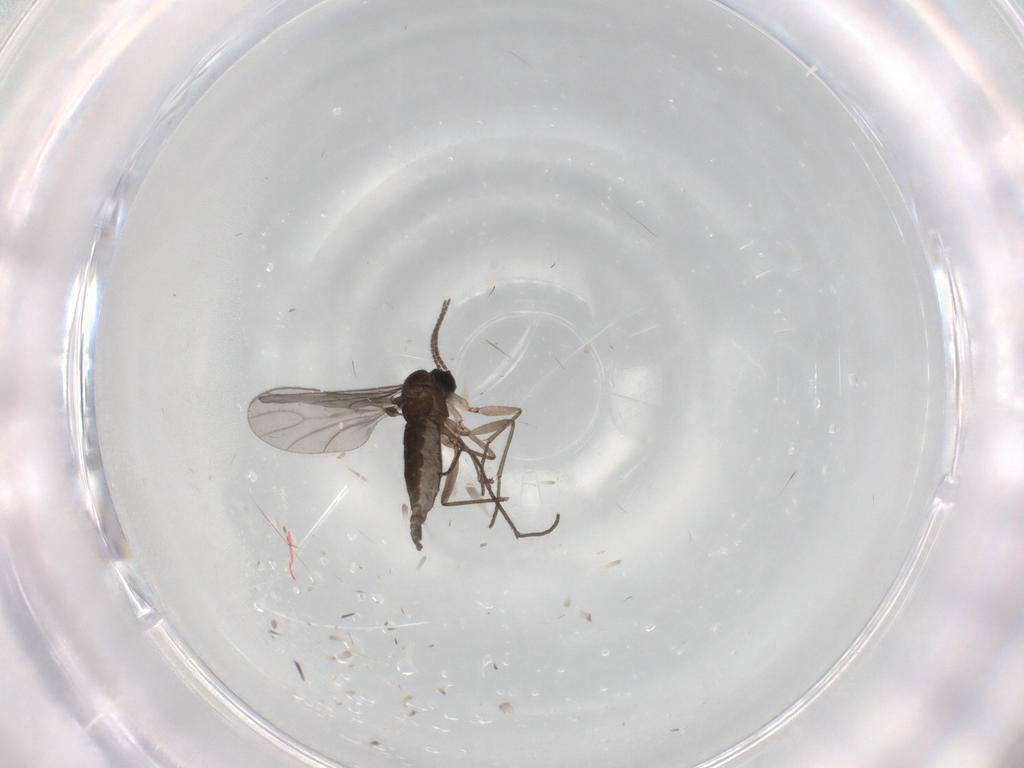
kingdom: Animalia
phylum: Arthropoda
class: Insecta
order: Diptera
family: Sciaridae
